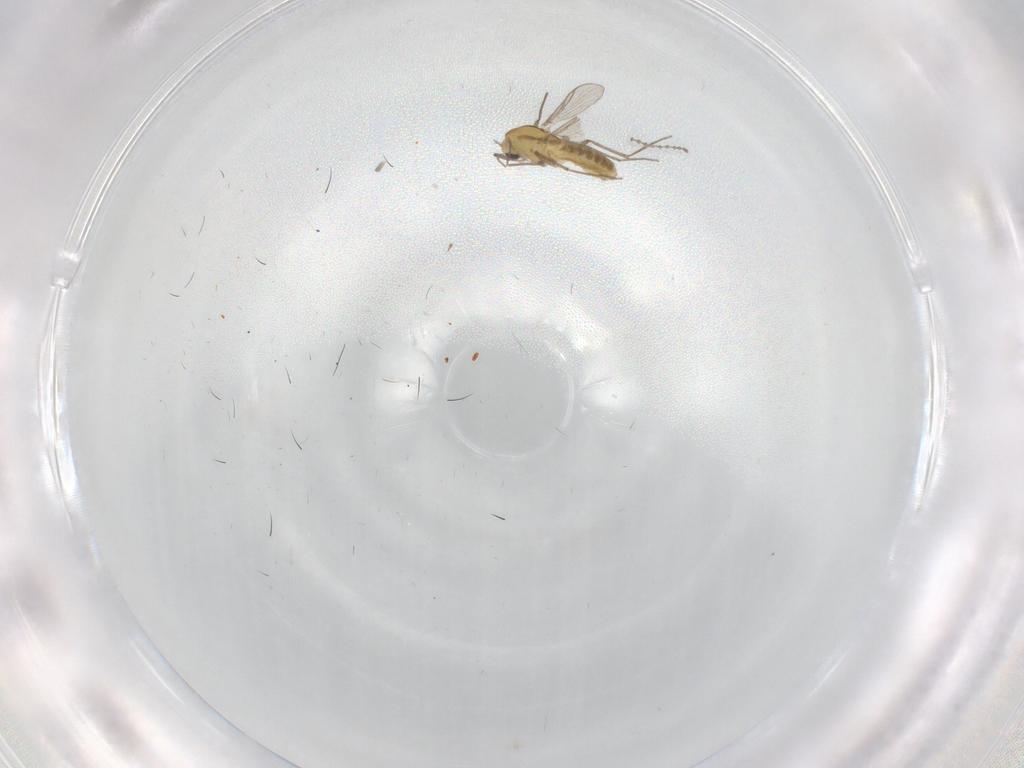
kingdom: Animalia
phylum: Arthropoda
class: Insecta
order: Diptera
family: Chironomidae
